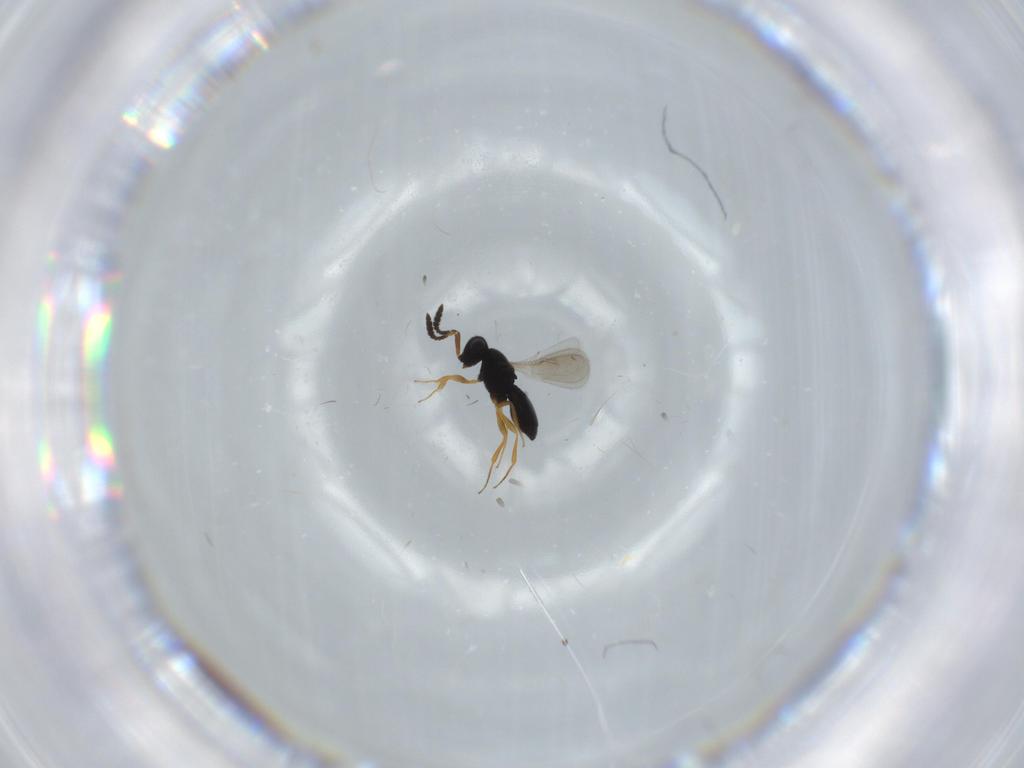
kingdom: Animalia
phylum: Arthropoda
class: Insecta
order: Hymenoptera
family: Scelionidae
